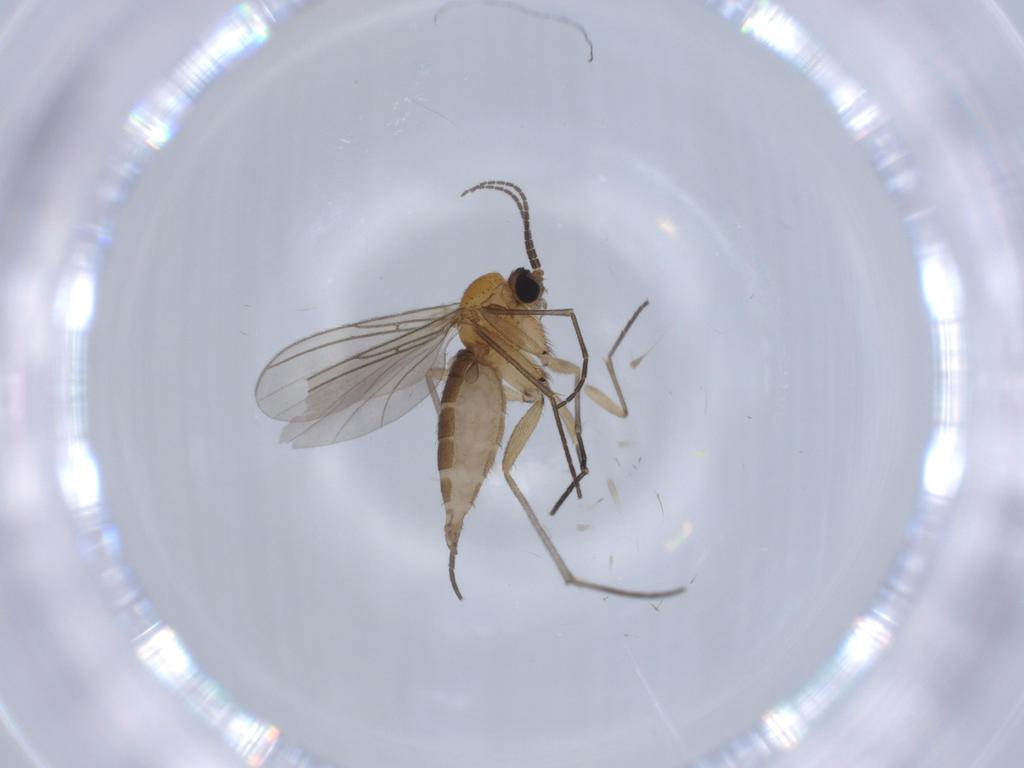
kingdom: Animalia
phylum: Arthropoda
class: Insecta
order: Diptera
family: Sciaridae
